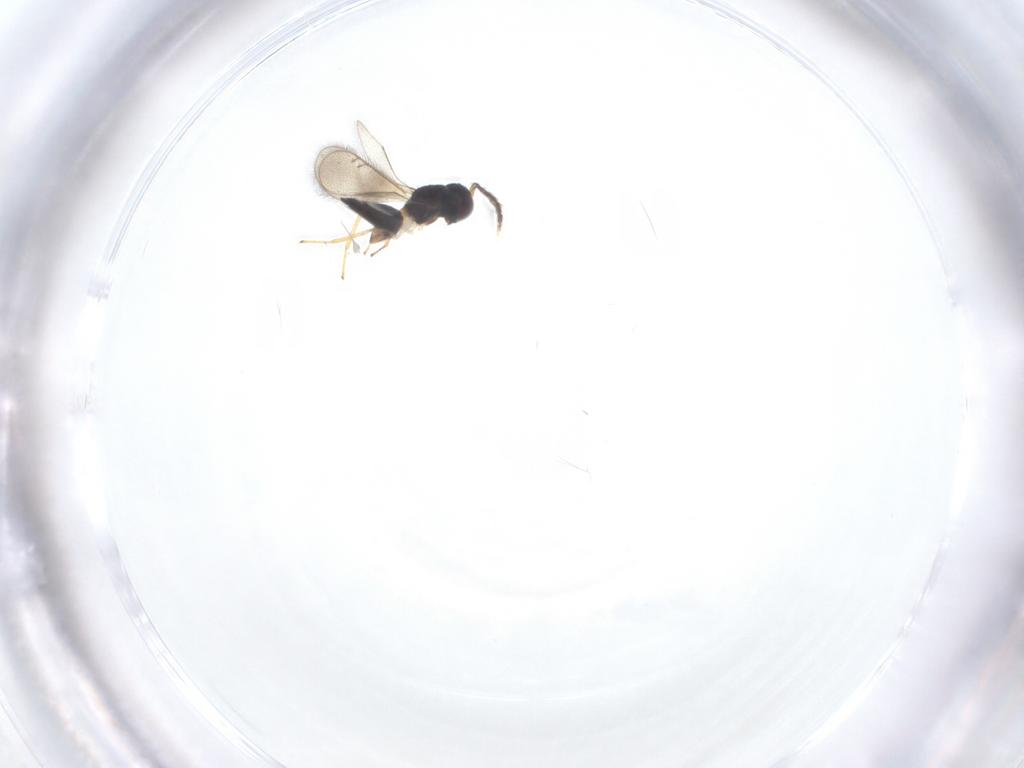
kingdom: Animalia
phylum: Arthropoda
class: Insecta
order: Hymenoptera
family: Eulophidae
